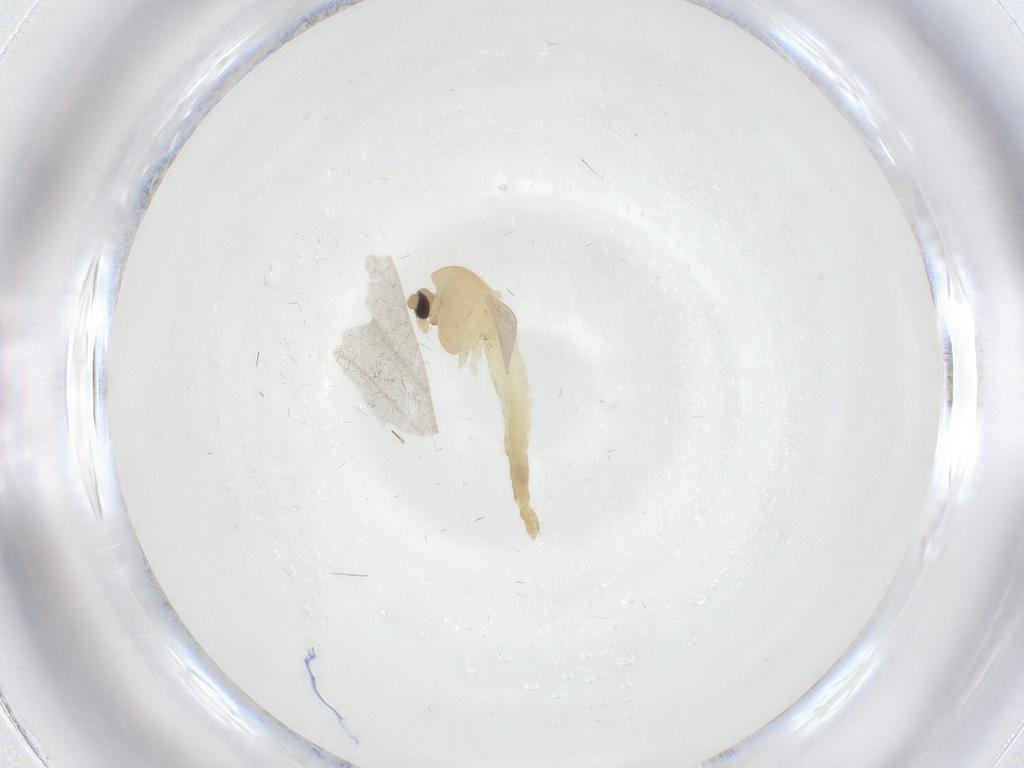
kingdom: Animalia
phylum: Arthropoda
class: Insecta
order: Diptera
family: Chironomidae
